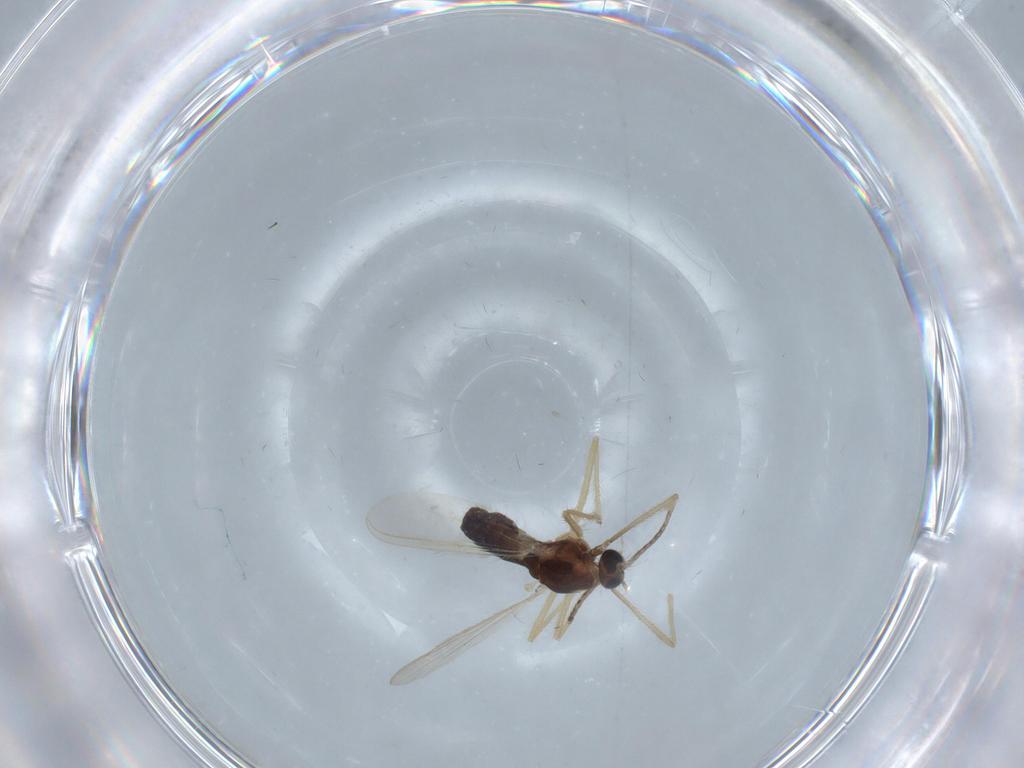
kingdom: Animalia
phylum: Arthropoda
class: Insecta
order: Diptera
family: Chironomidae
